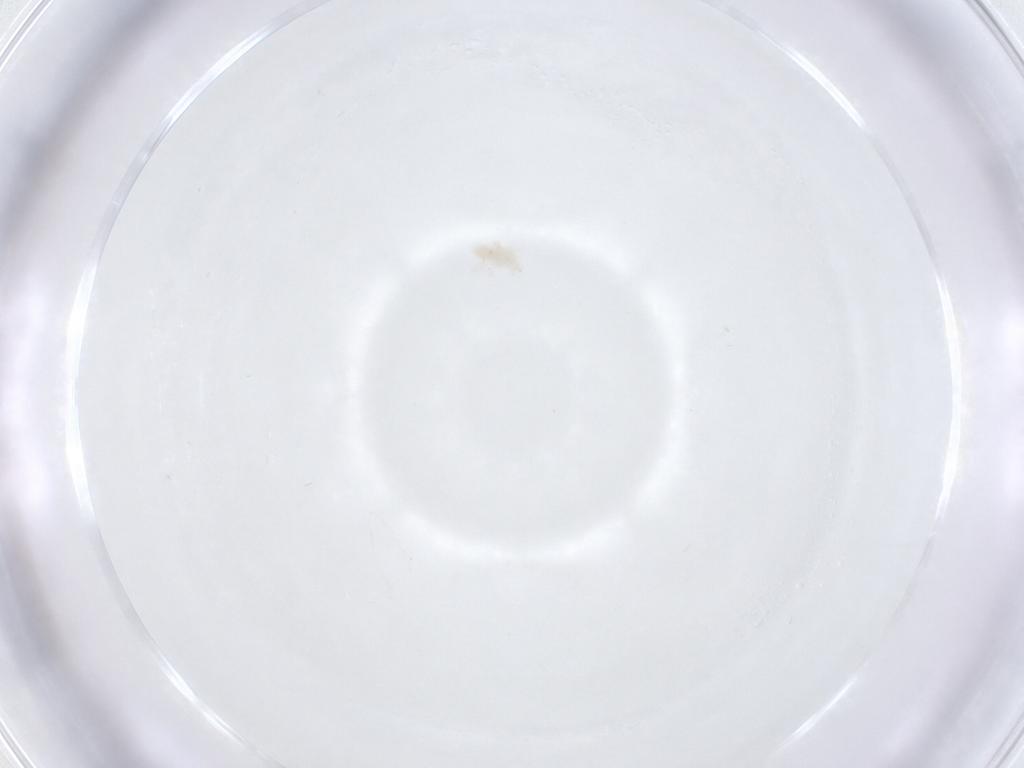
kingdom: Animalia
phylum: Arthropoda
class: Arachnida
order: Trombidiformes
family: Eupodidae
